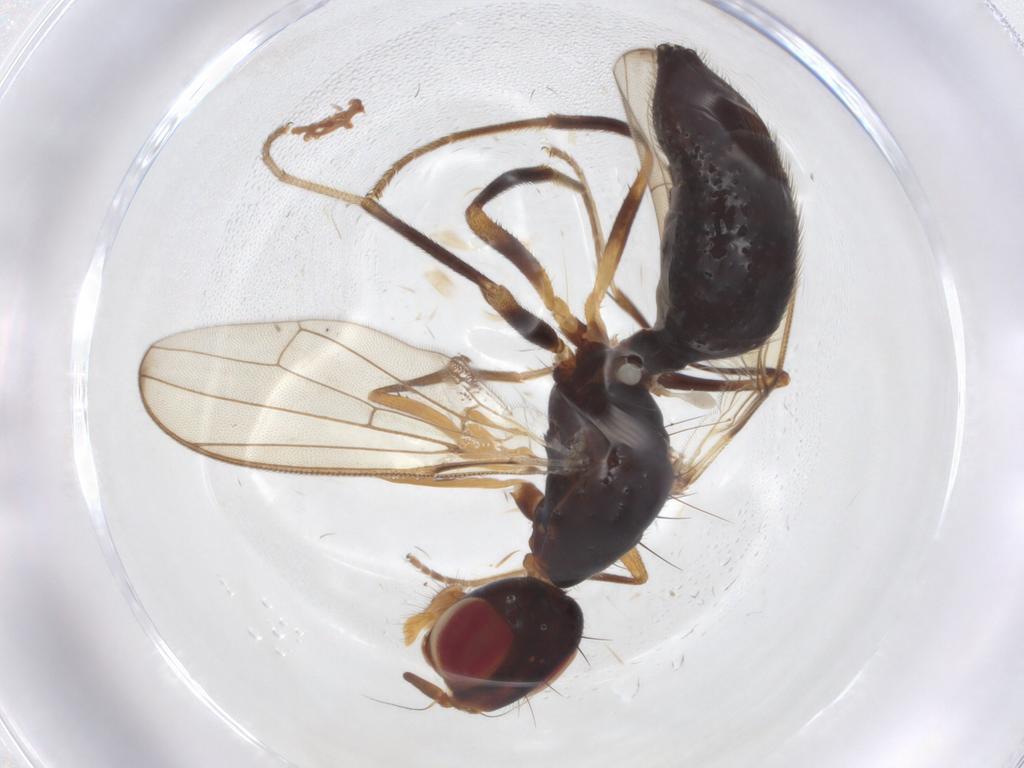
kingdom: Animalia
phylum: Arthropoda
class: Insecta
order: Diptera
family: Richardiidae
